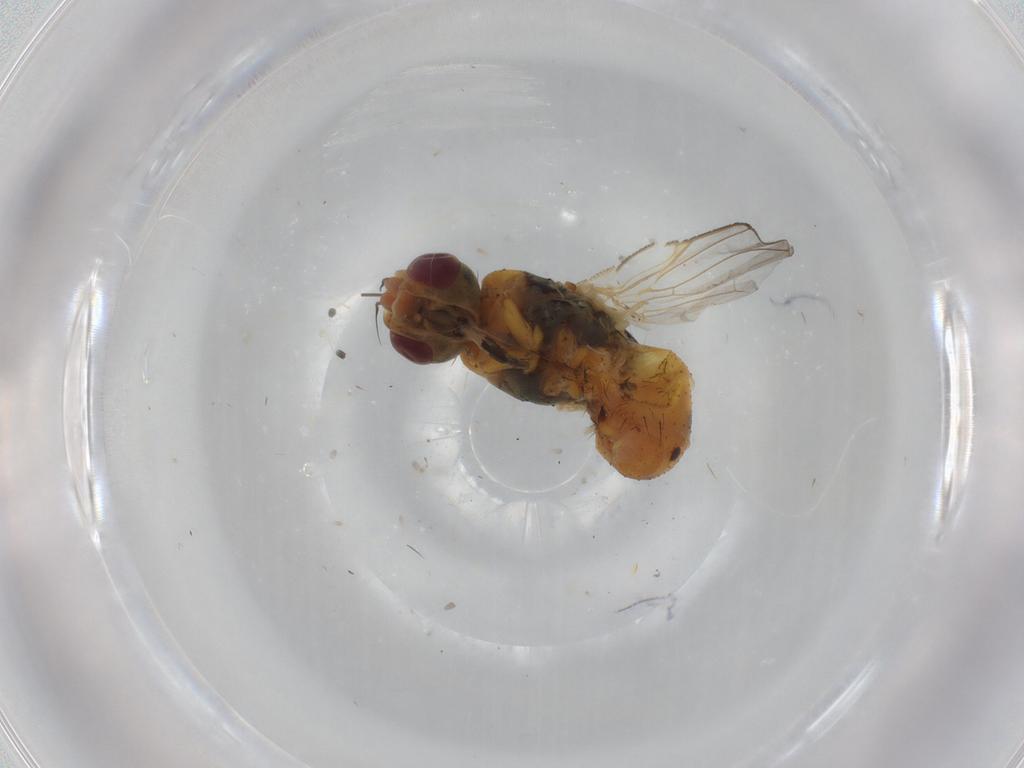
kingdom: Animalia
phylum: Arthropoda
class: Insecta
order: Diptera
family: Muscidae
